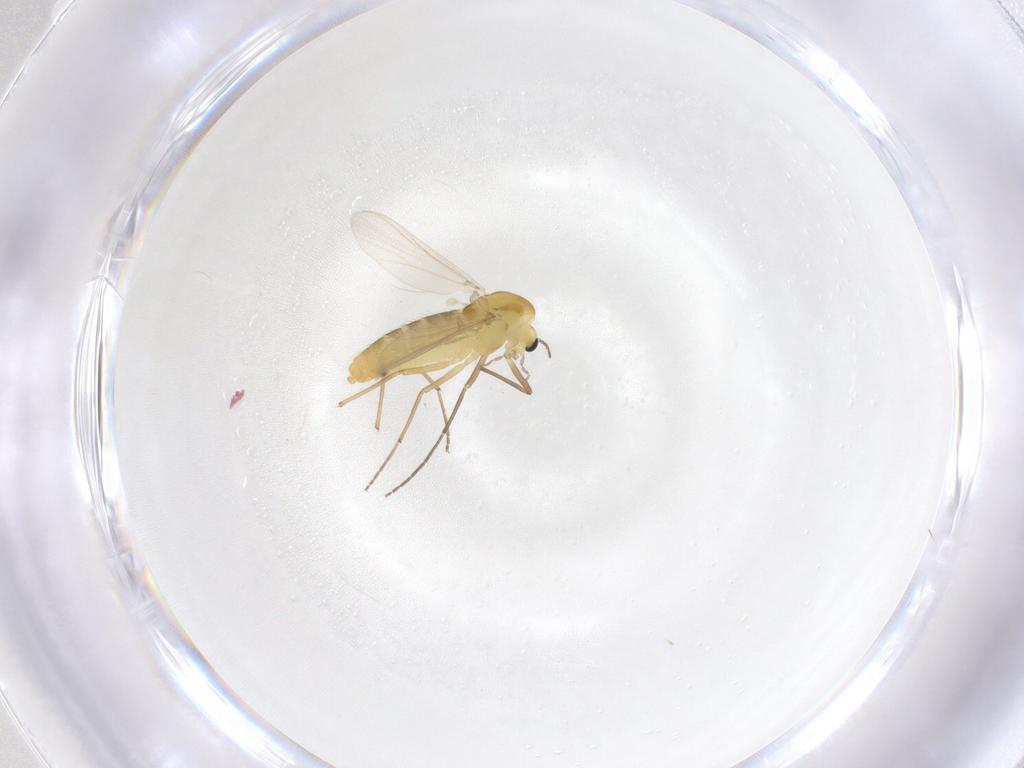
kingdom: Animalia
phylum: Arthropoda
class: Insecta
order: Diptera
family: Chironomidae
